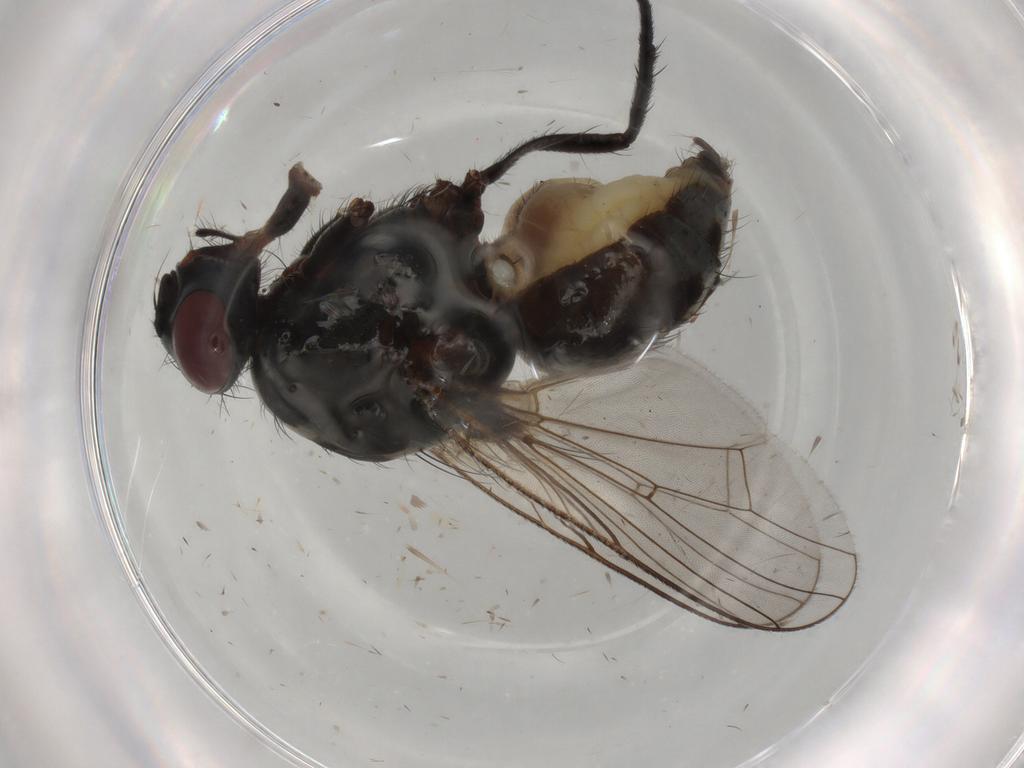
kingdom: Animalia
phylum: Arthropoda
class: Insecta
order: Diptera
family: Anthomyiidae
